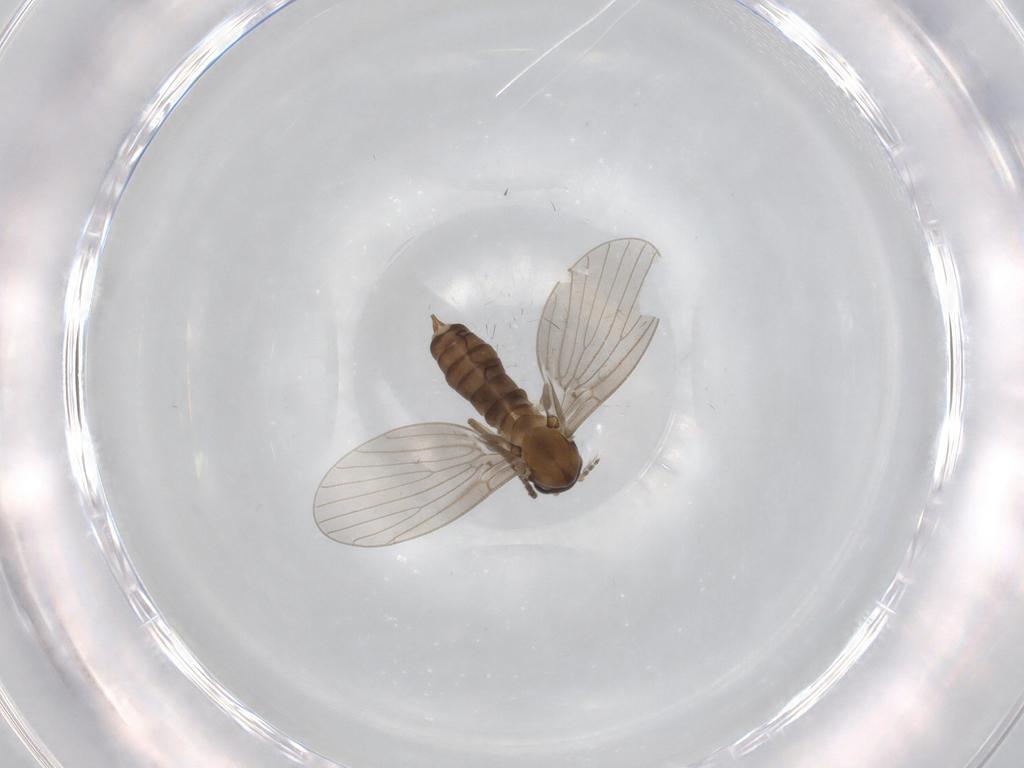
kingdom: Animalia
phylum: Arthropoda
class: Insecta
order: Diptera
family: Psychodidae
